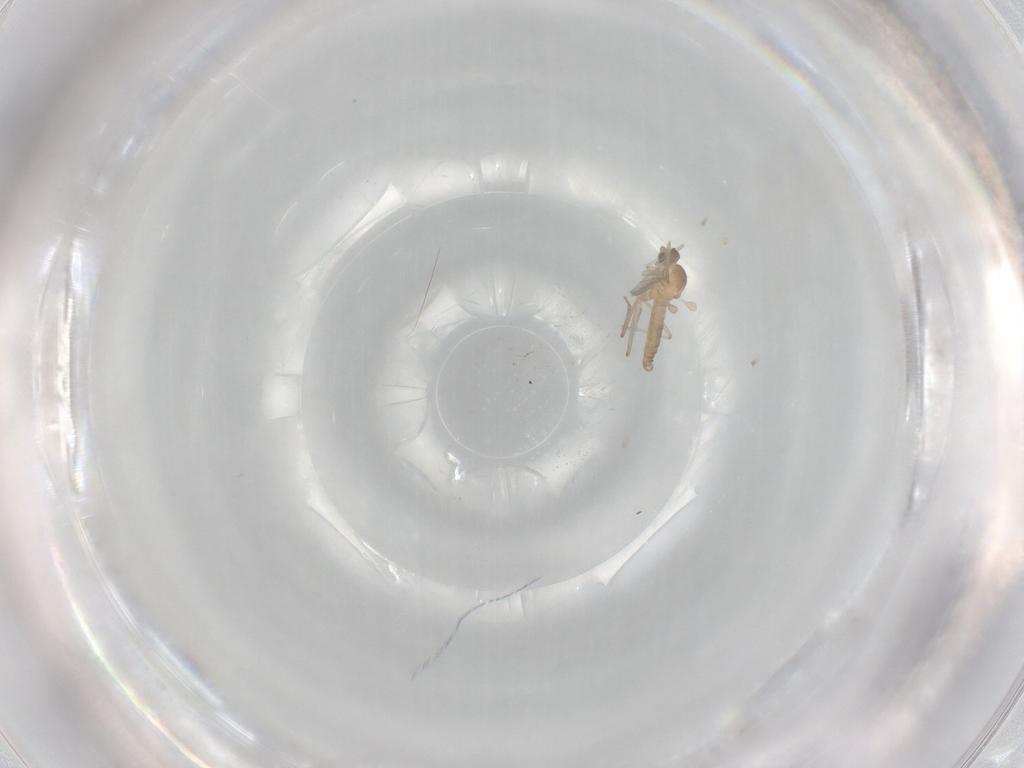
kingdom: Animalia
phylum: Arthropoda
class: Insecta
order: Diptera
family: Cecidomyiidae
